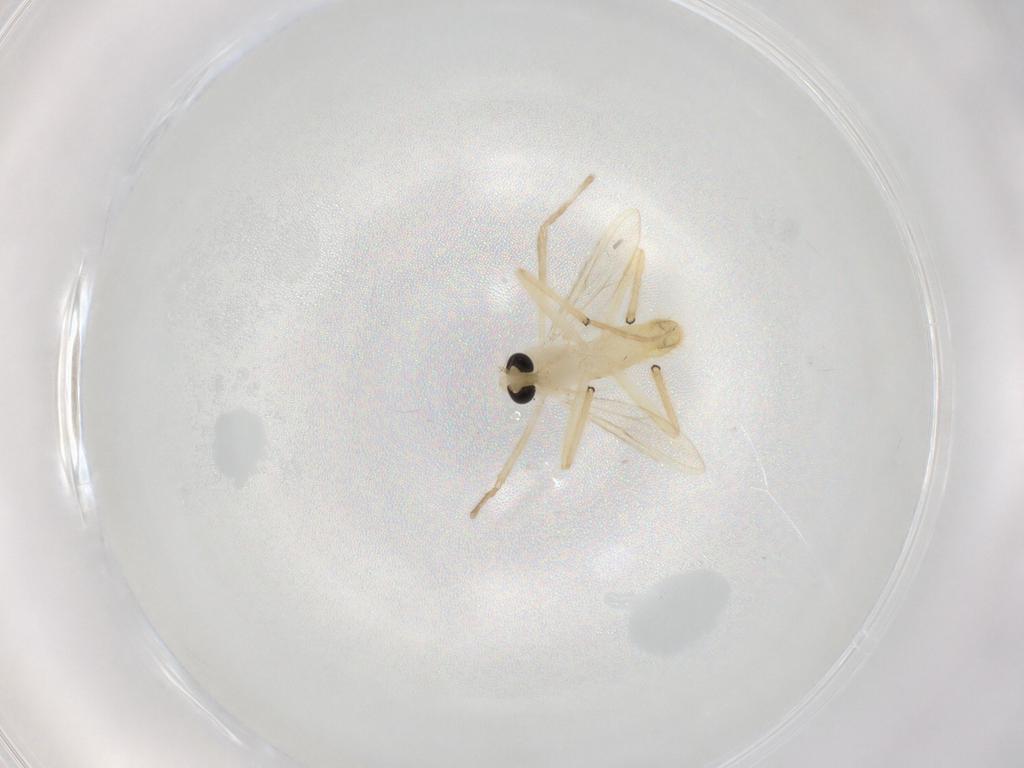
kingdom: Animalia
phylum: Arthropoda
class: Insecta
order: Diptera
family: Chironomidae
